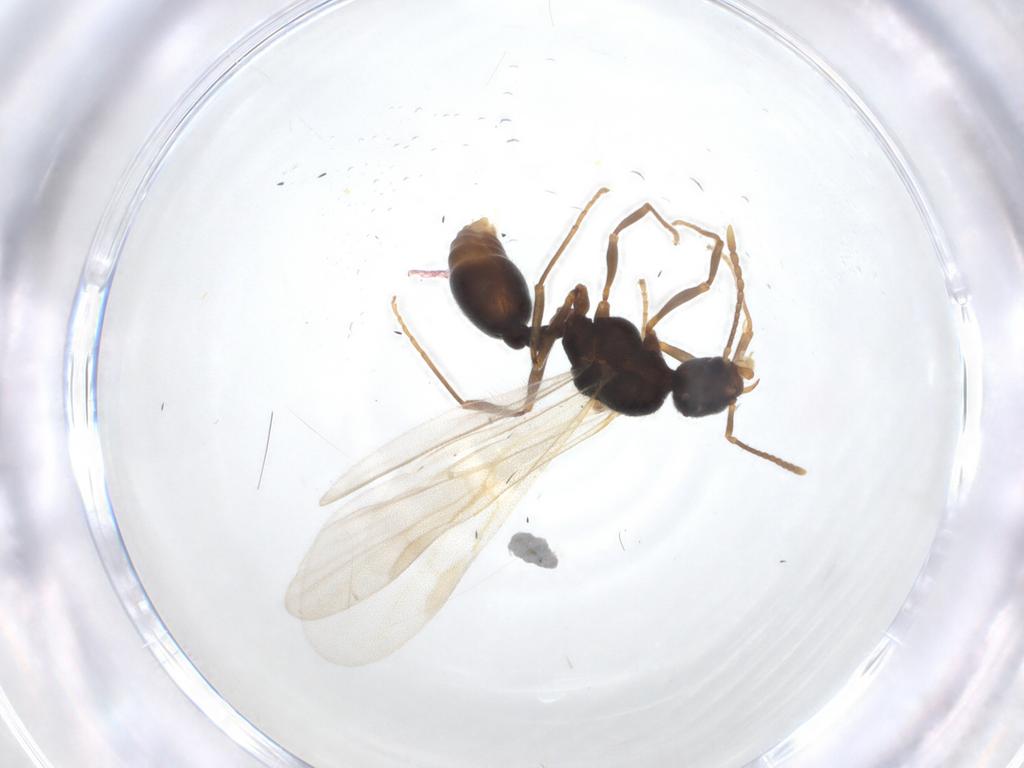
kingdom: Animalia
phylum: Arthropoda
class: Insecta
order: Hymenoptera
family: Formicidae
